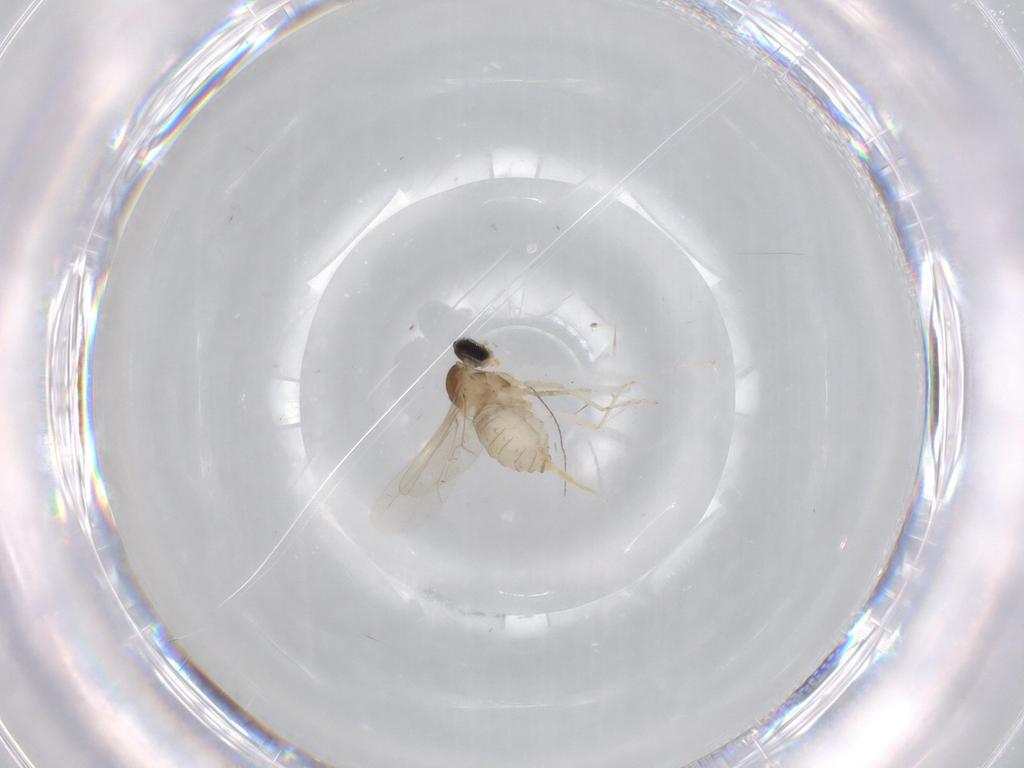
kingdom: Animalia
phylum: Arthropoda
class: Insecta
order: Diptera
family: Cecidomyiidae
